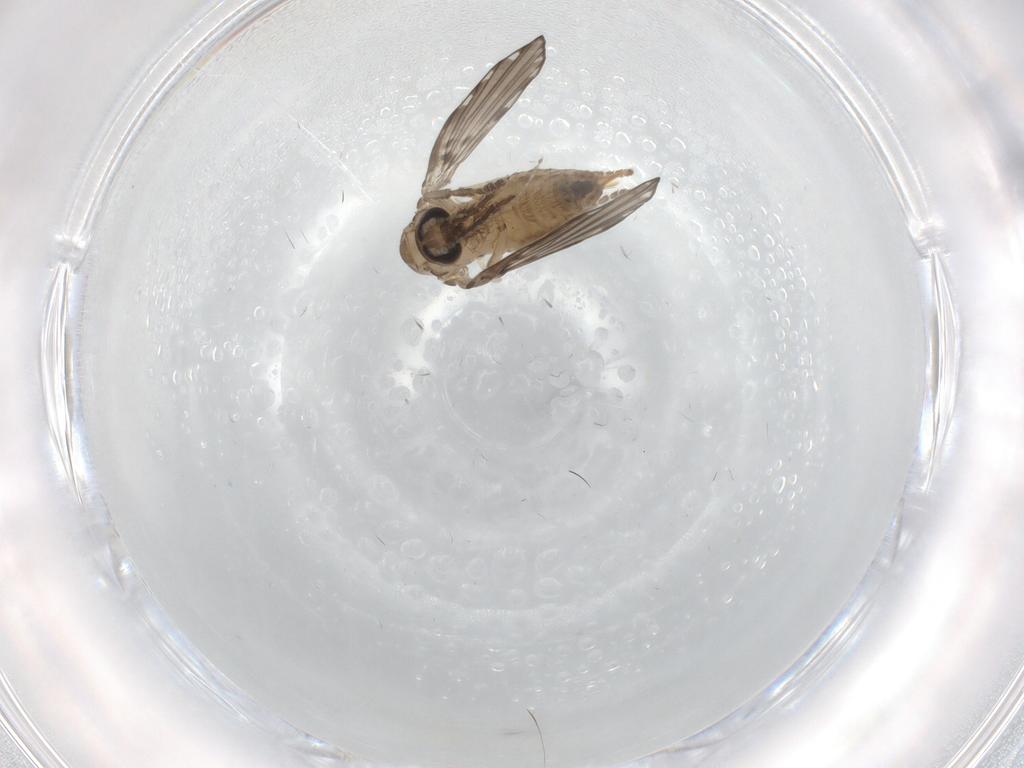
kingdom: Animalia
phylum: Arthropoda
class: Insecta
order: Diptera
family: Psychodidae
